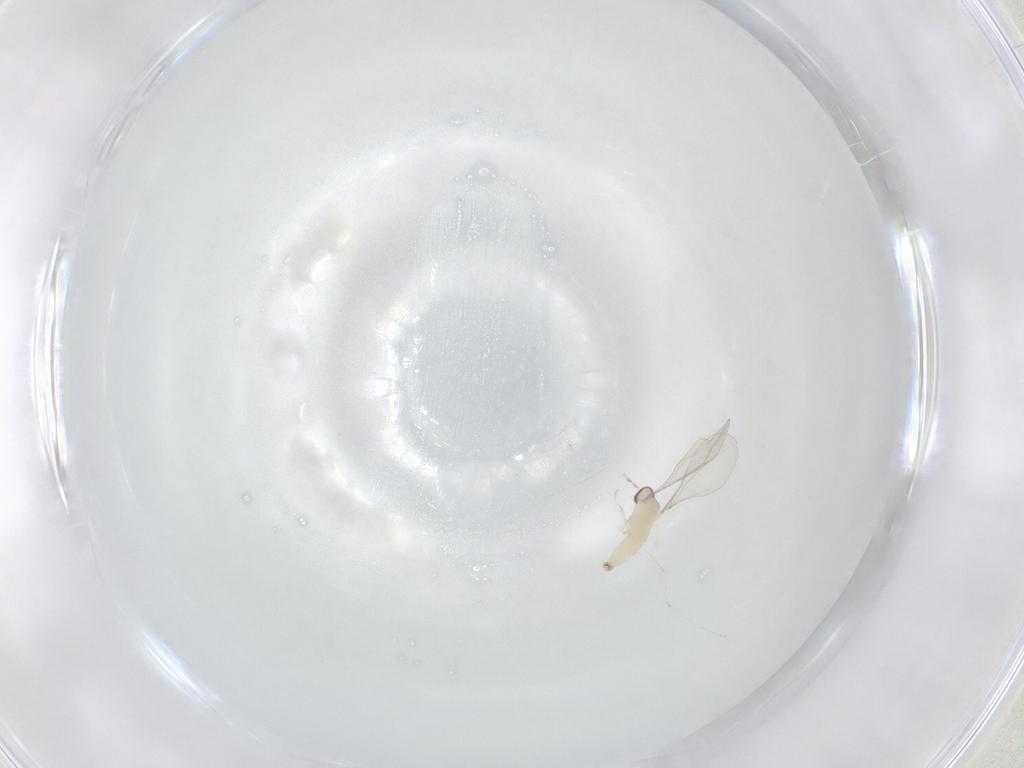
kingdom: Animalia
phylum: Arthropoda
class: Insecta
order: Diptera
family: Cecidomyiidae
